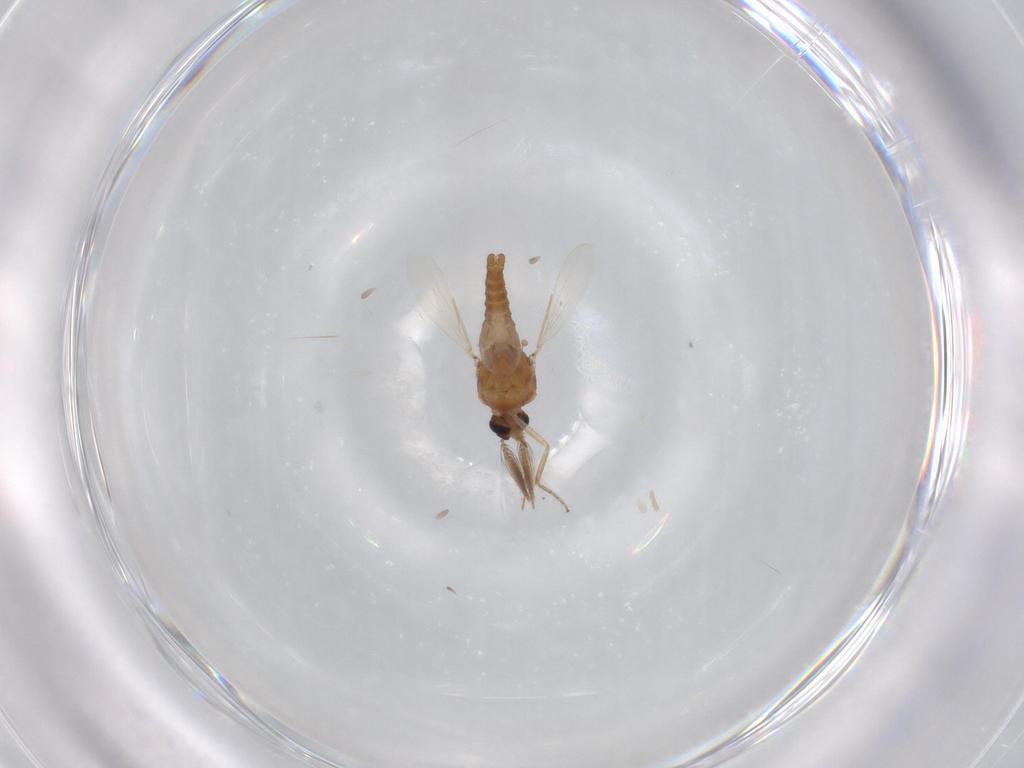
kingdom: Animalia
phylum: Arthropoda
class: Insecta
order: Diptera
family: Ceratopogonidae
